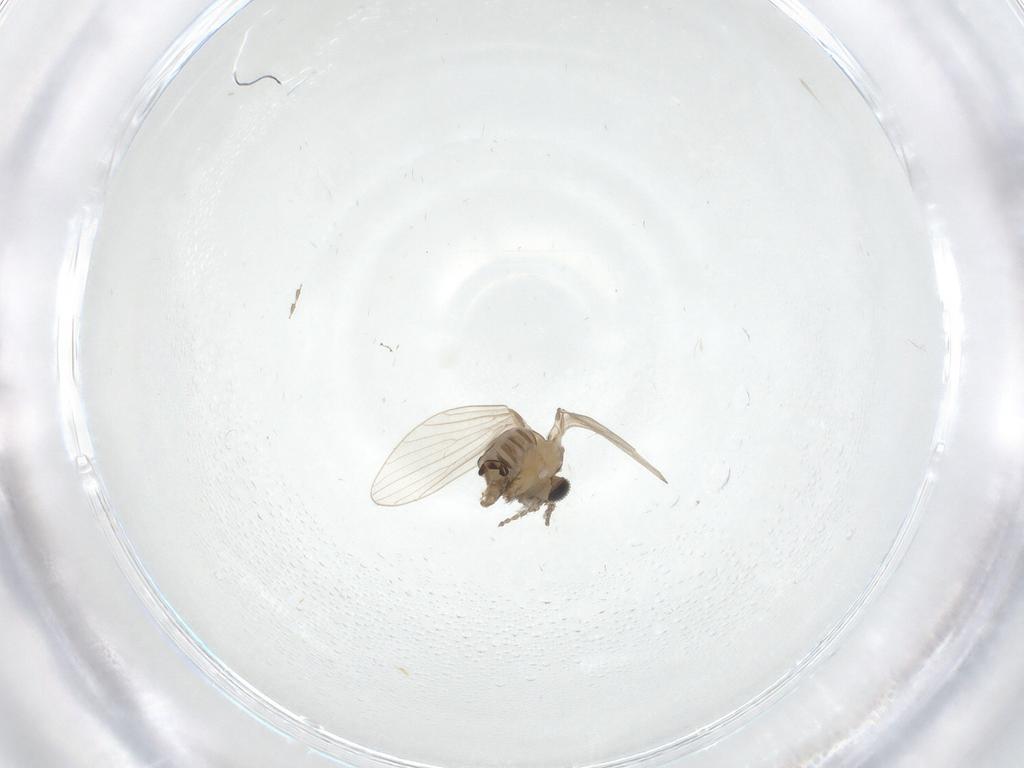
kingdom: Animalia
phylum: Arthropoda
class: Insecta
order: Diptera
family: Psychodidae
